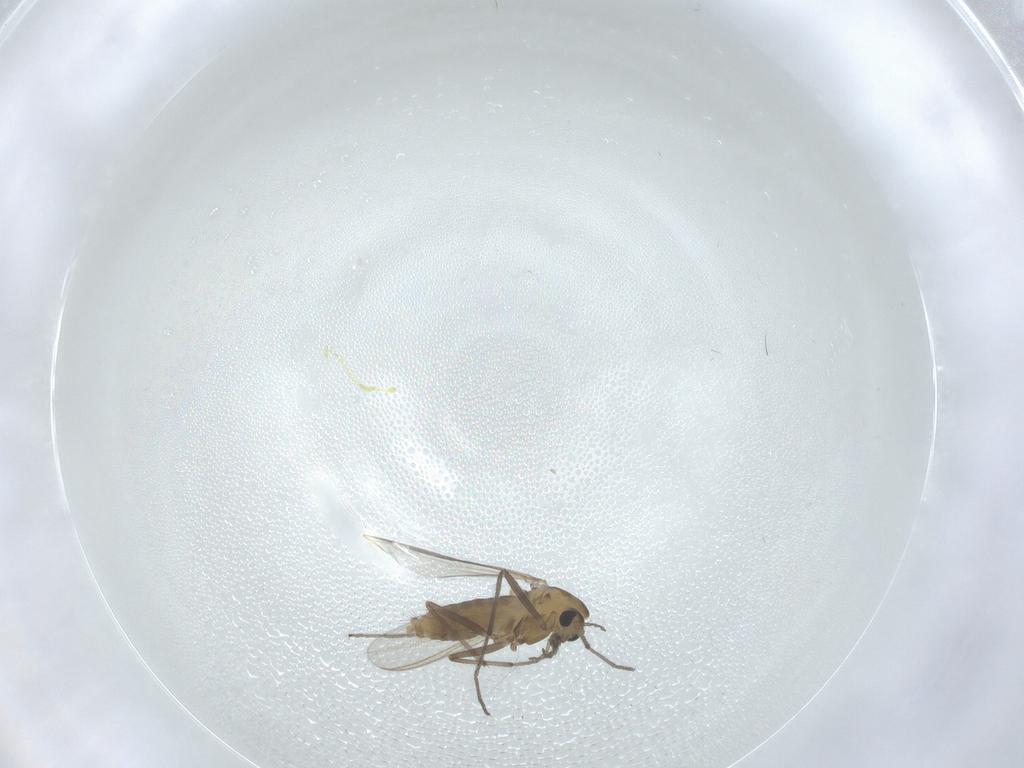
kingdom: Animalia
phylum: Arthropoda
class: Insecta
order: Diptera
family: Chironomidae
